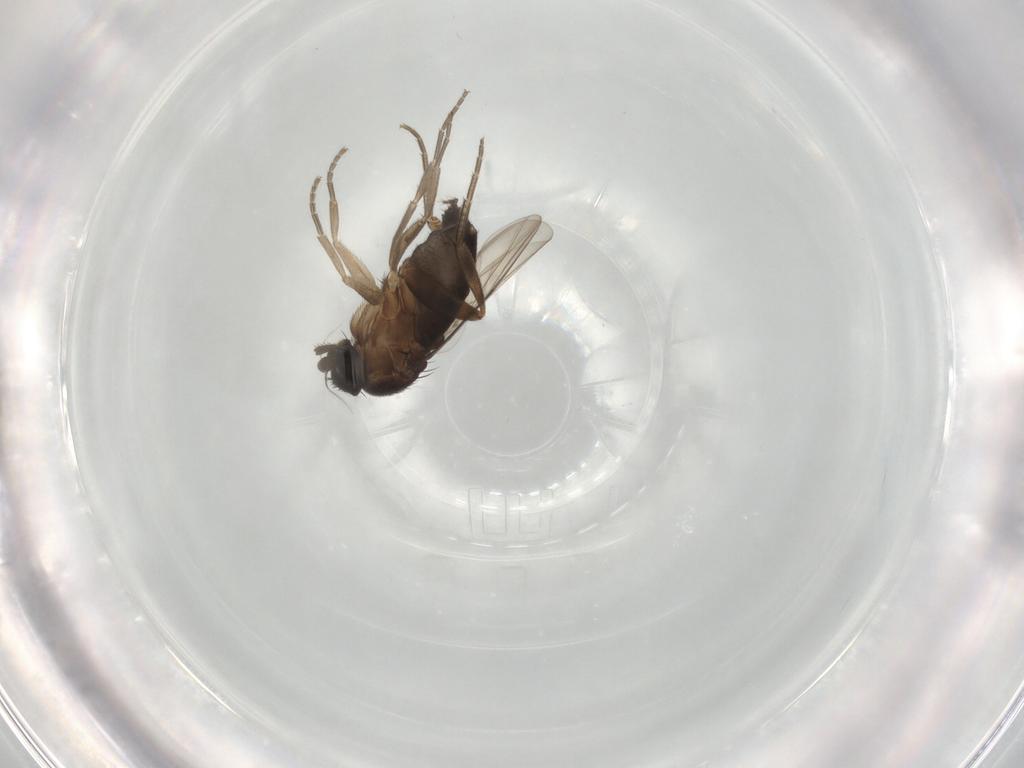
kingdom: Animalia
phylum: Arthropoda
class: Insecta
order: Diptera
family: Phoridae
